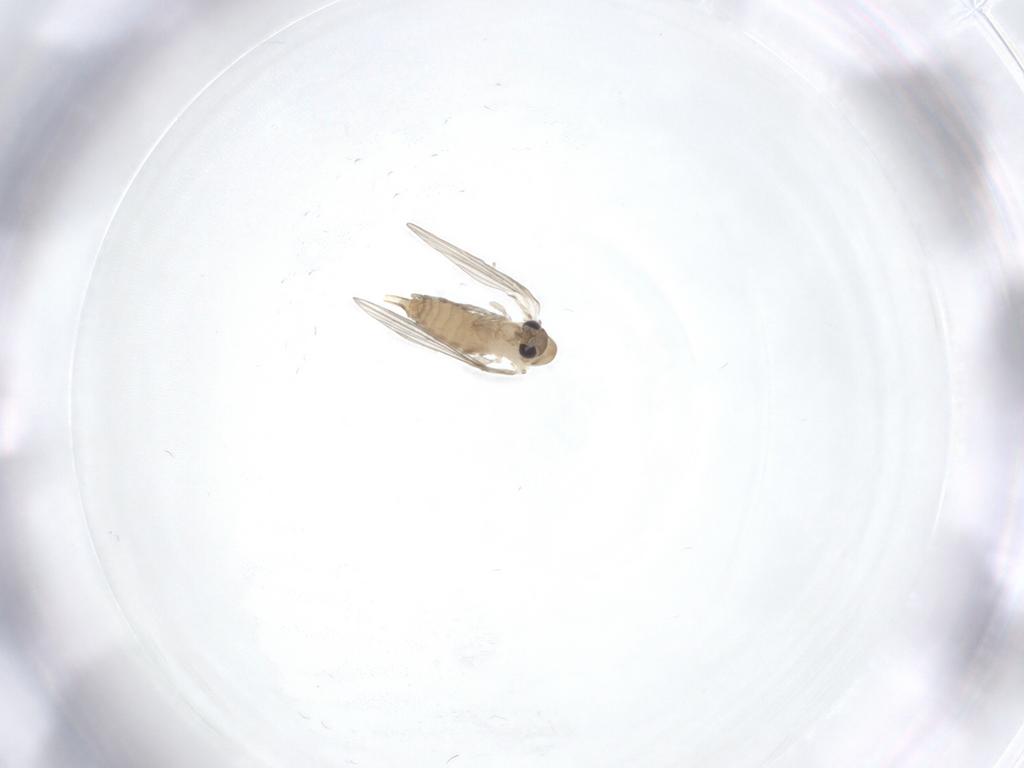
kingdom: Animalia
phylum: Arthropoda
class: Insecta
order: Diptera
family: Psychodidae
